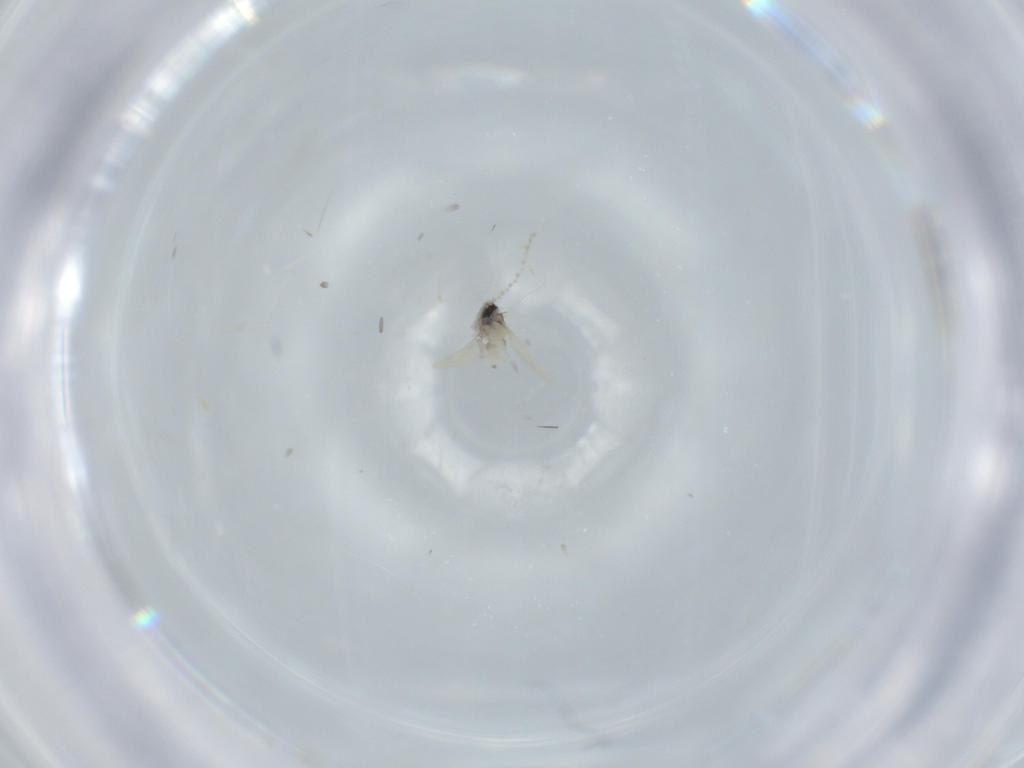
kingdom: Animalia
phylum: Arthropoda
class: Insecta
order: Diptera
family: Cecidomyiidae
